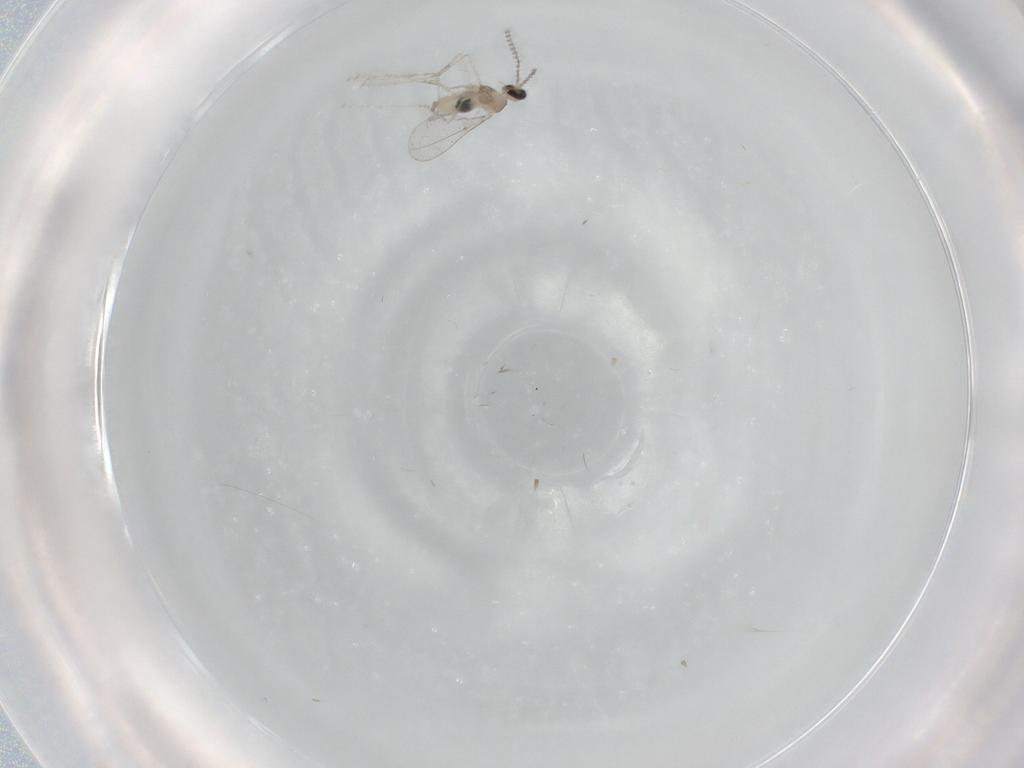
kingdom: Animalia
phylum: Arthropoda
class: Insecta
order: Diptera
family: Cecidomyiidae
